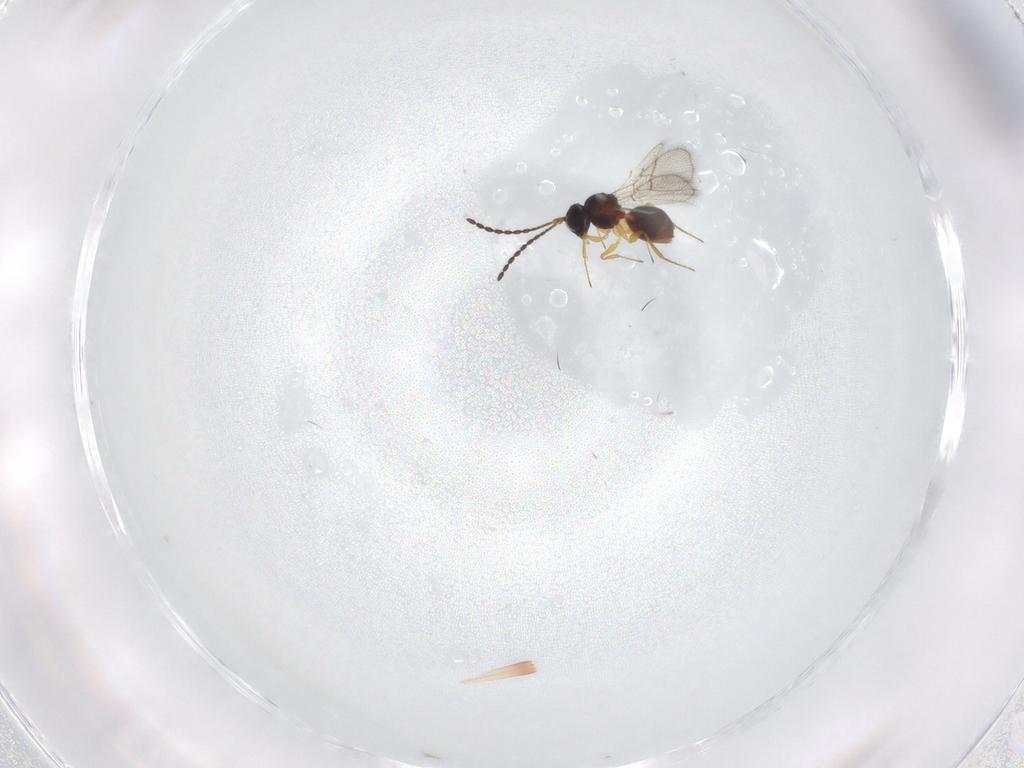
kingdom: Animalia
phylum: Arthropoda
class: Insecta
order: Hymenoptera
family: Figitidae
